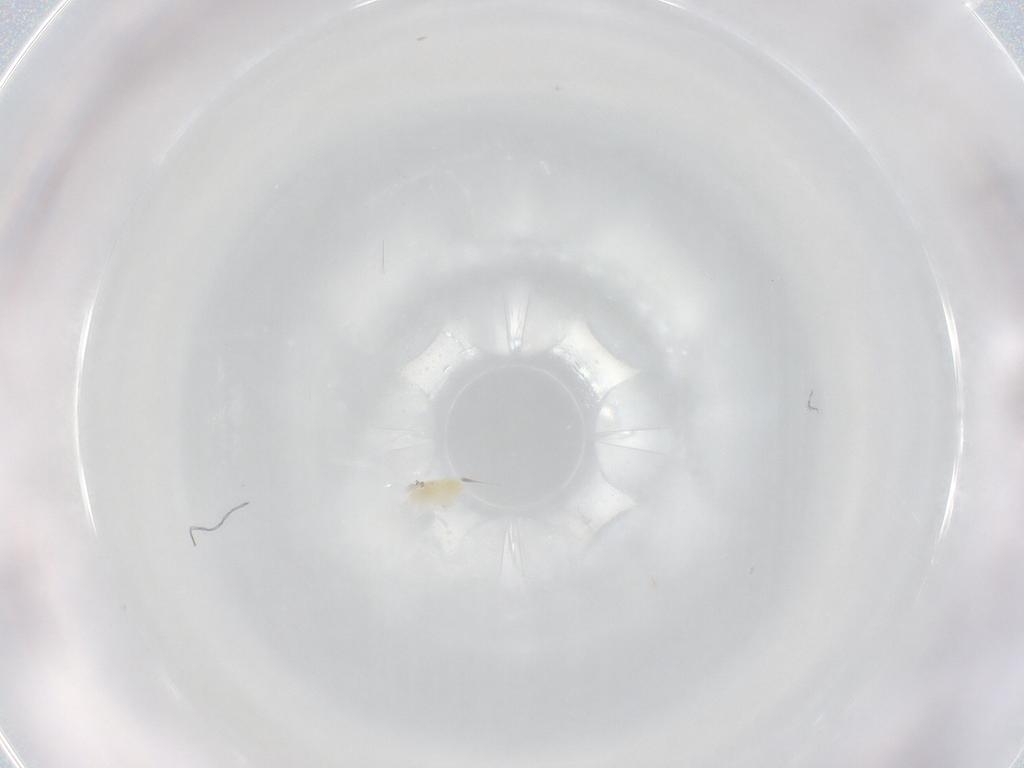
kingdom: Animalia
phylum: Arthropoda
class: Arachnida
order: Trombidiformes
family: Eupodidae
